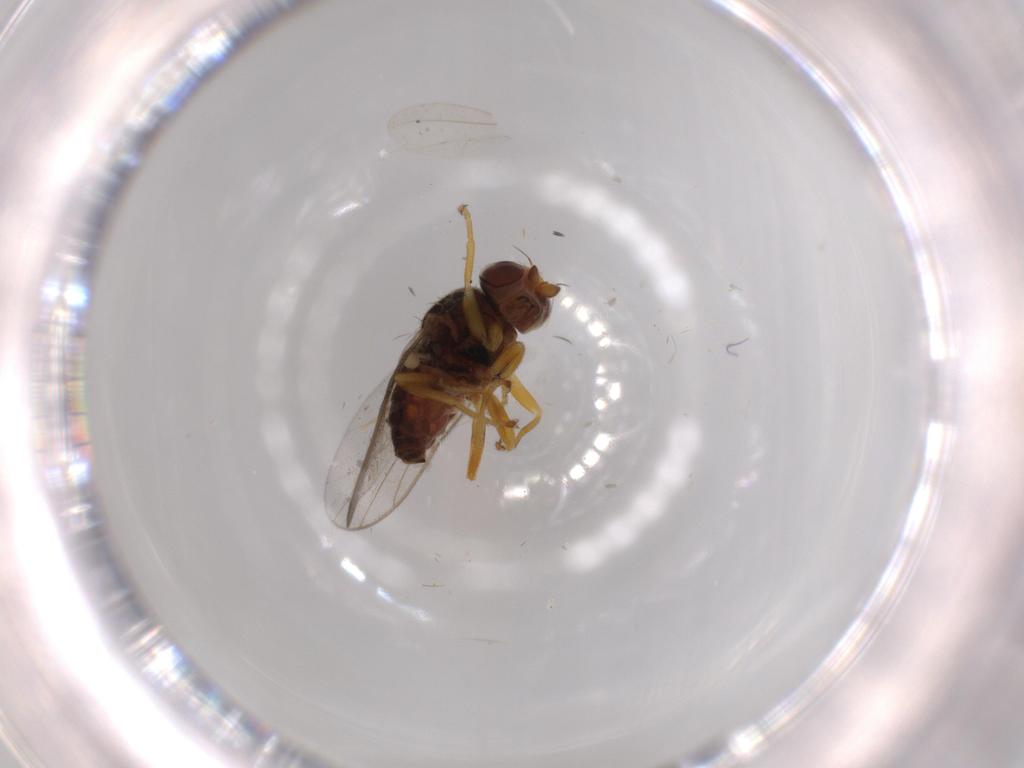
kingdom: Animalia
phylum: Arthropoda
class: Insecta
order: Diptera
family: Chloropidae
